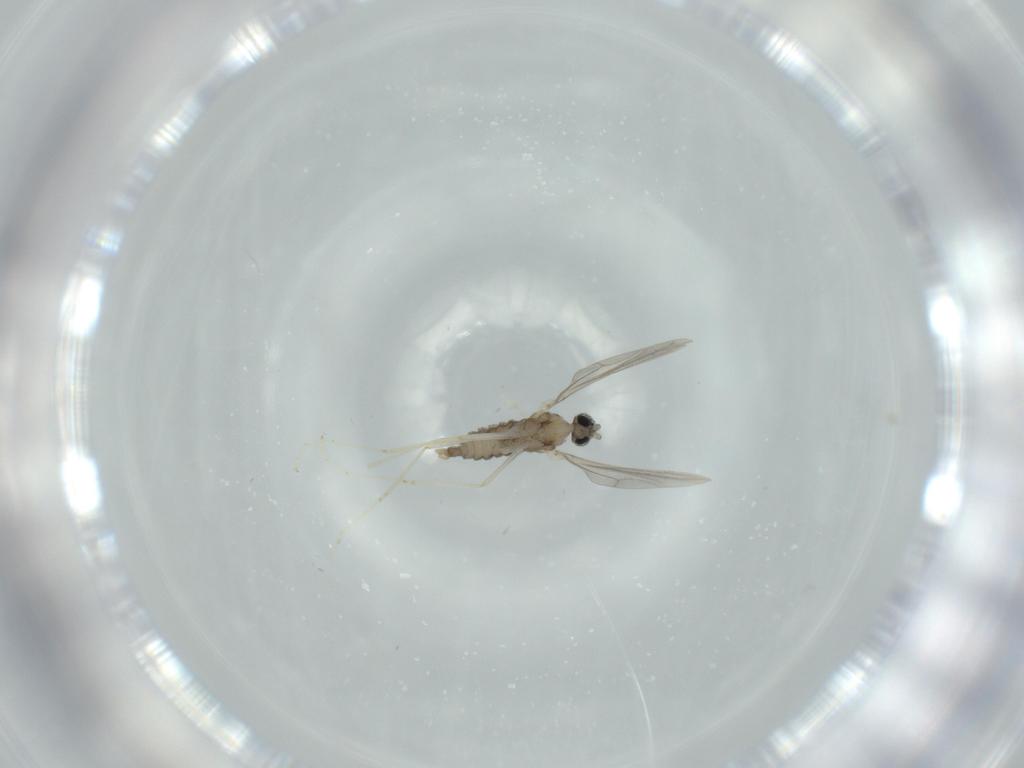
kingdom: Animalia
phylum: Arthropoda
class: Insecta
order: Diptera
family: Cecidomyiidae
